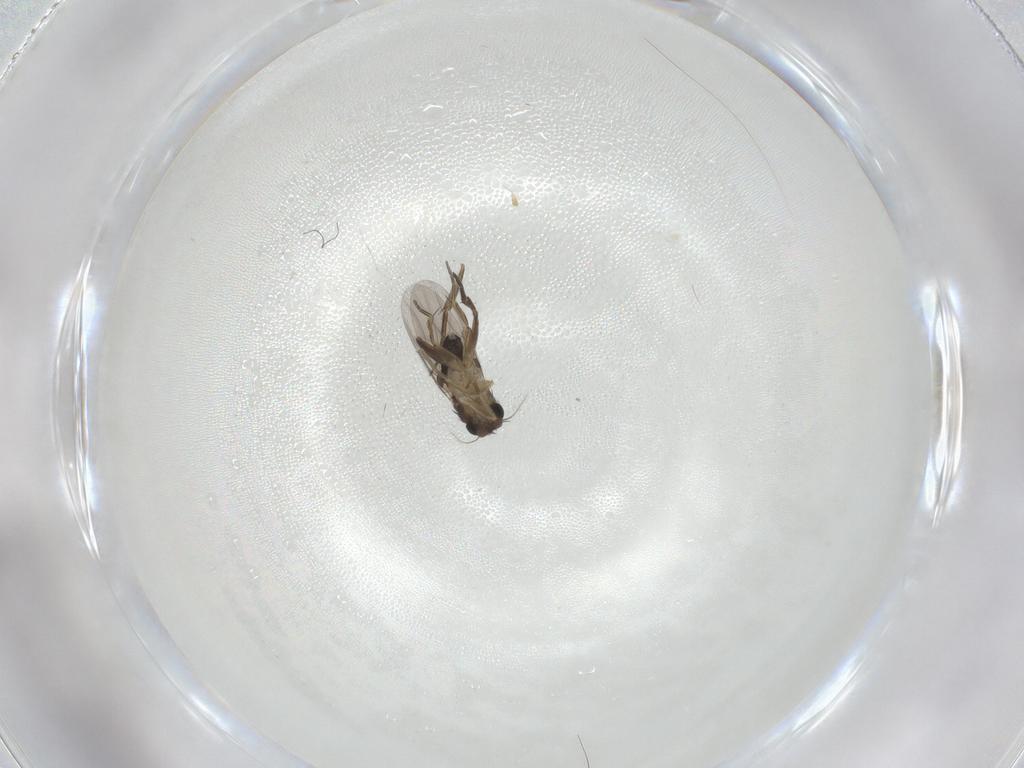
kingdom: Animalia
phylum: Arthropoda
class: Insecta
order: Diptera
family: Phoridae
